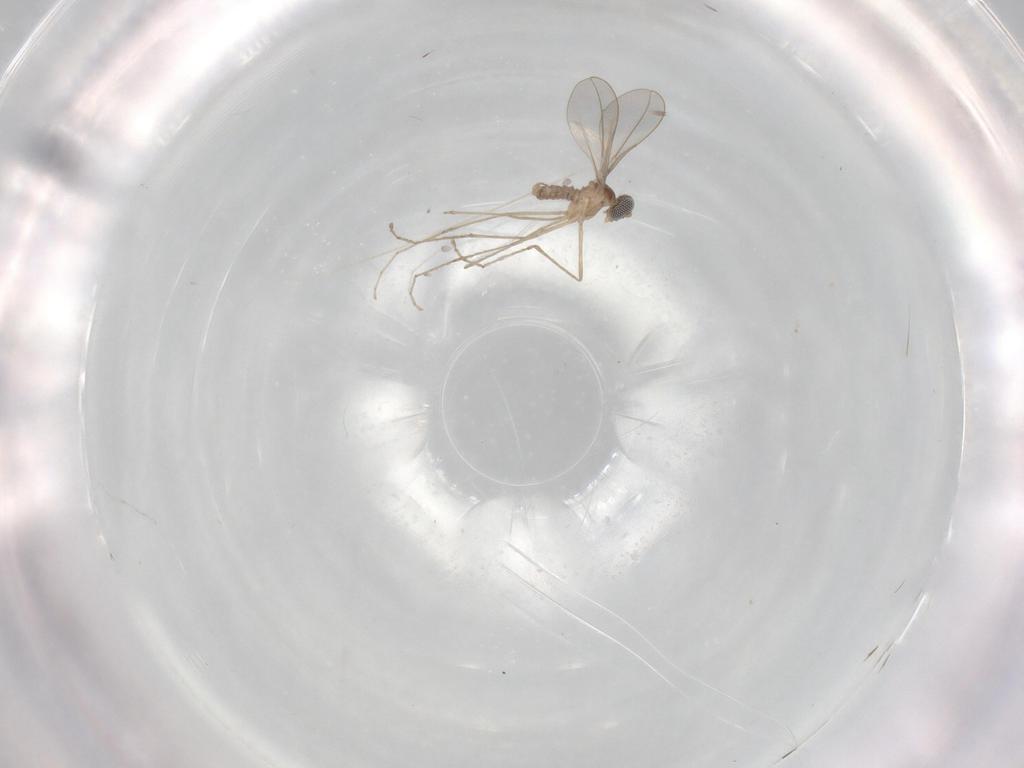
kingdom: Animalia
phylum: Arthropoda
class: Insecta
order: Diptera
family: Cecidomyiidae
